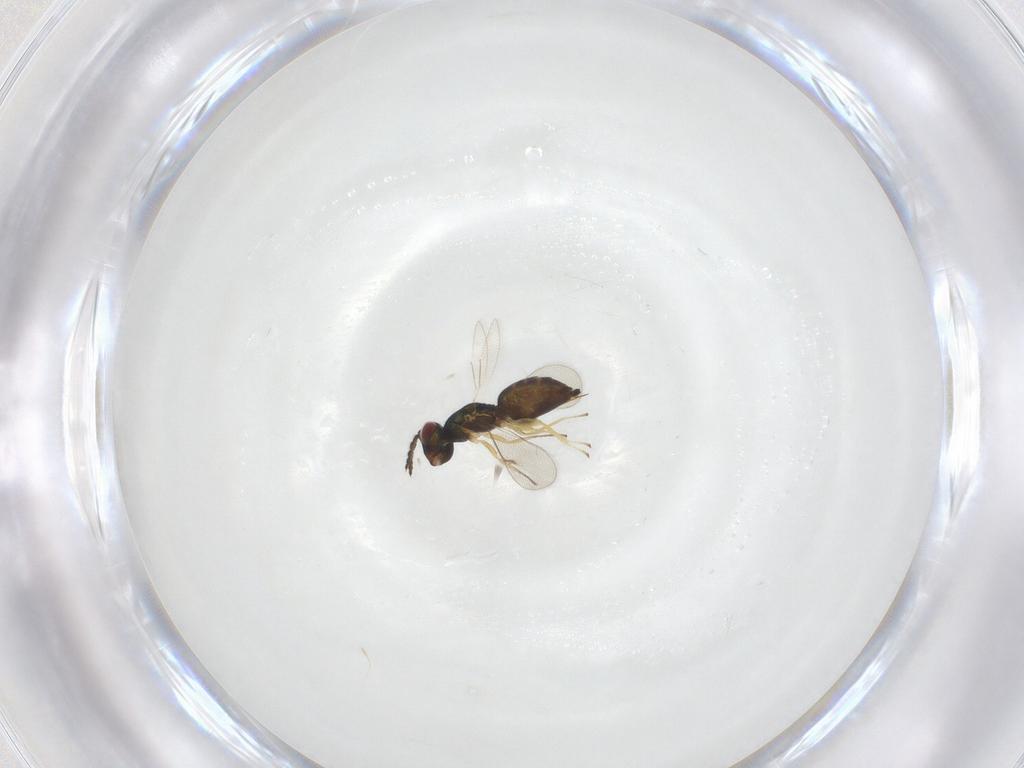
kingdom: Animalia
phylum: Arthropoda
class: Insecta
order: Hymenoptera
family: Eulophidae
